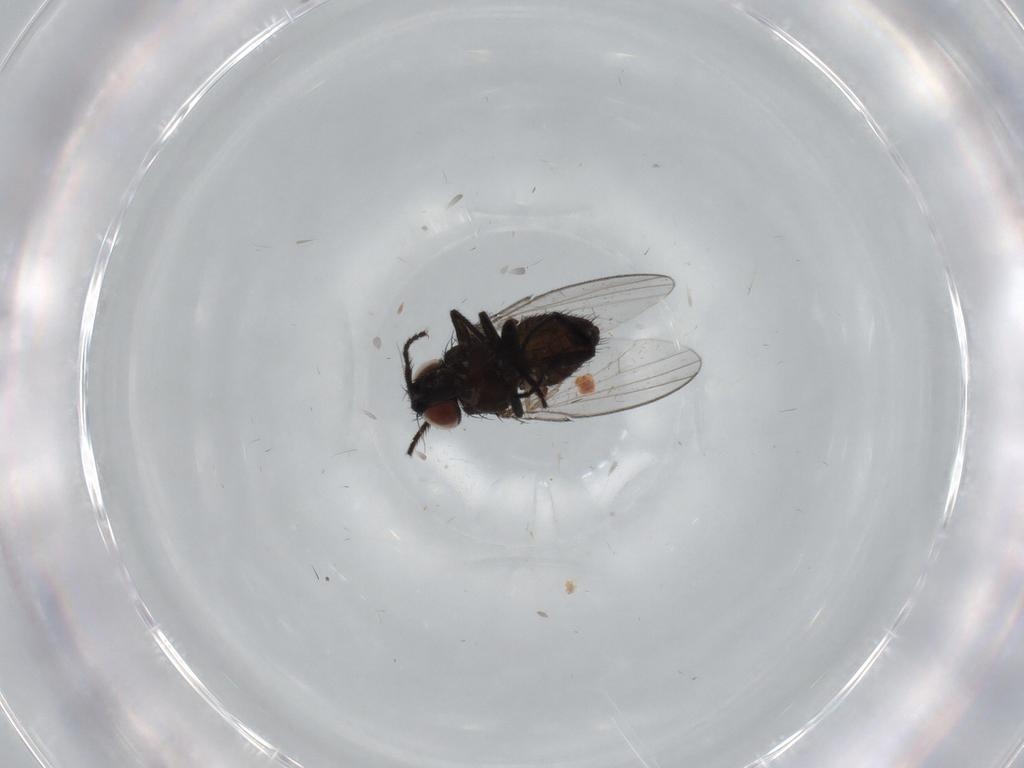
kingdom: Animalia
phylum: Arthropoda
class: Insecta
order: Diptera
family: Milichiidae
